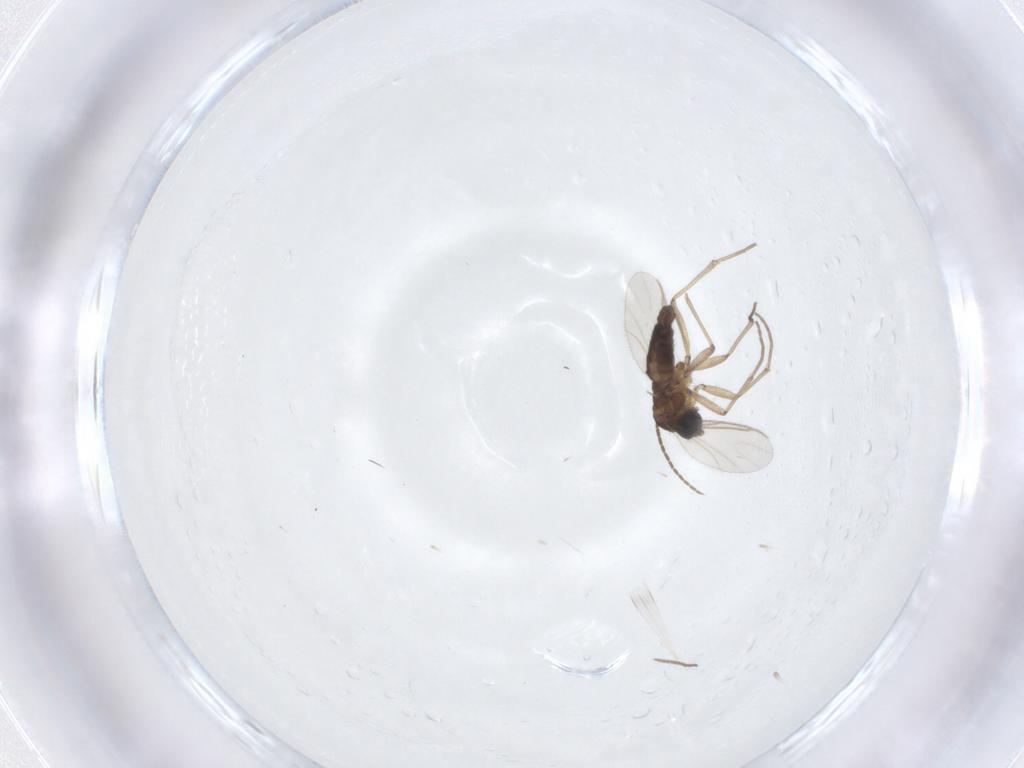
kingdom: Animalia
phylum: Arthropoda
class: Insecta
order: Diptera
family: Sciaridae
